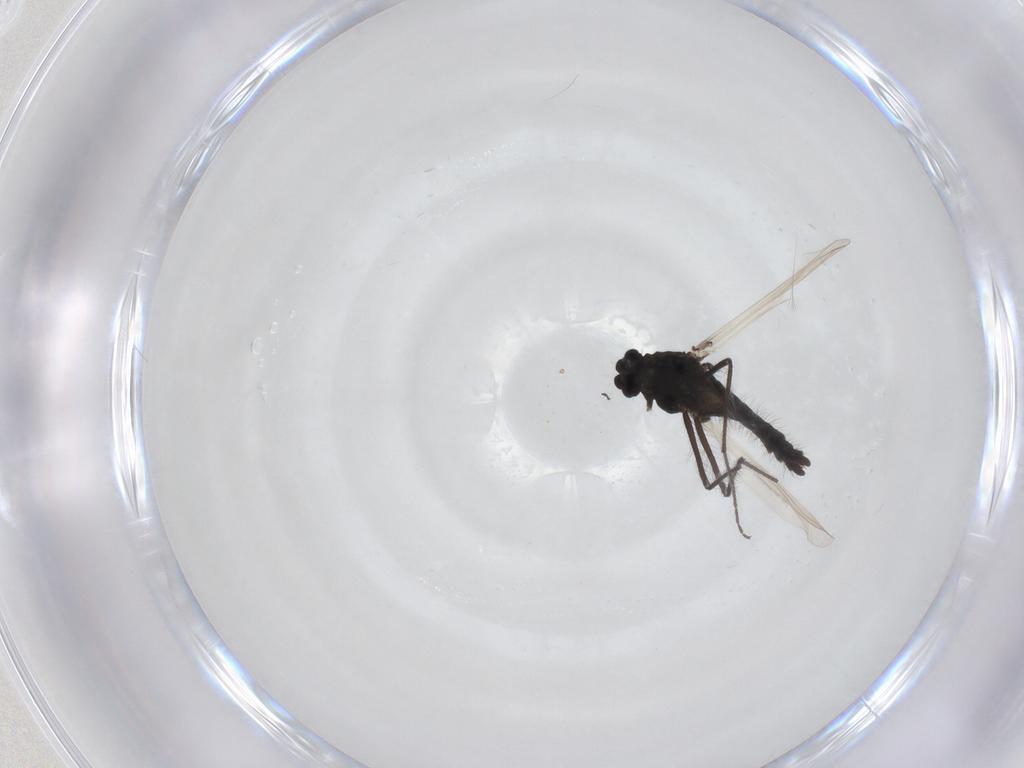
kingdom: Animalia
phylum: Arthropoda
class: Insecta
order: Diptera
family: Chironomidae
